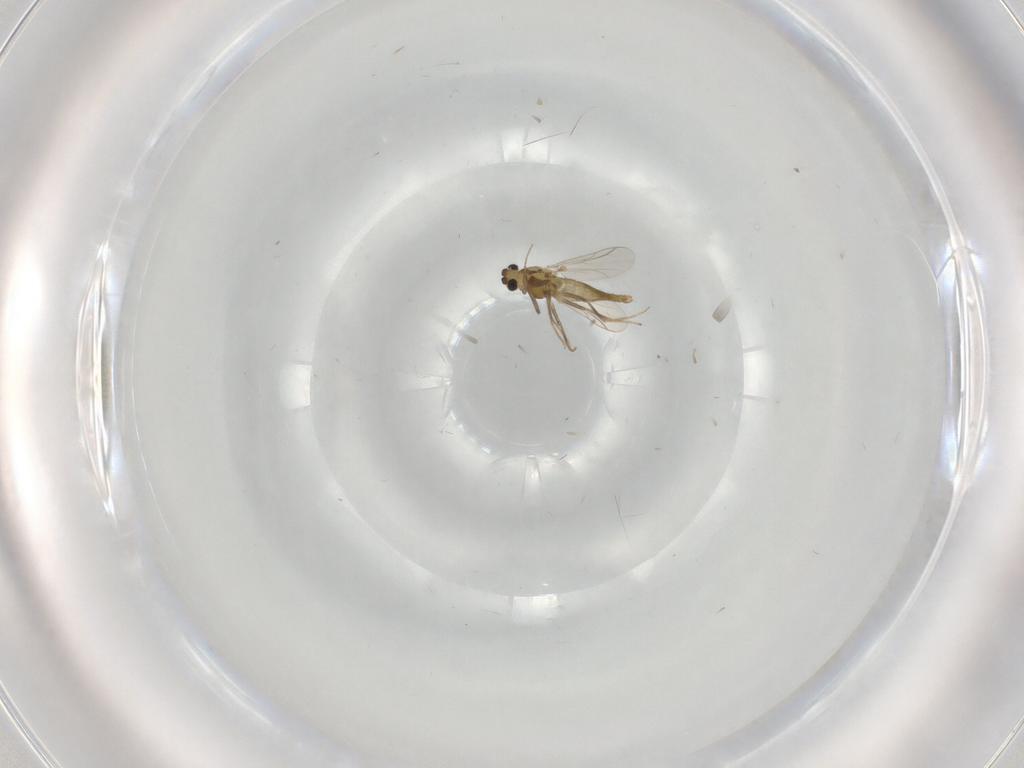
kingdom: Animalia
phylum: Arthropoda
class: Insecta
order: Diptera
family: Chironomidae
